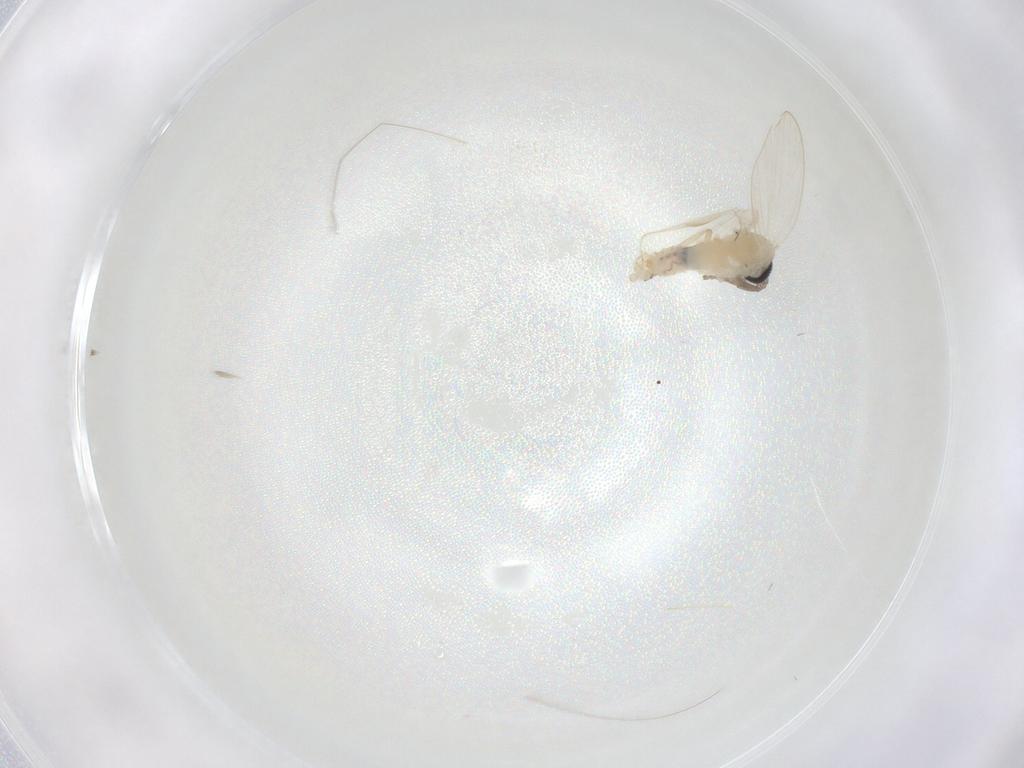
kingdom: Animalia
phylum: Arthropoda
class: Insecta
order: Diptera
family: Psychodidae
